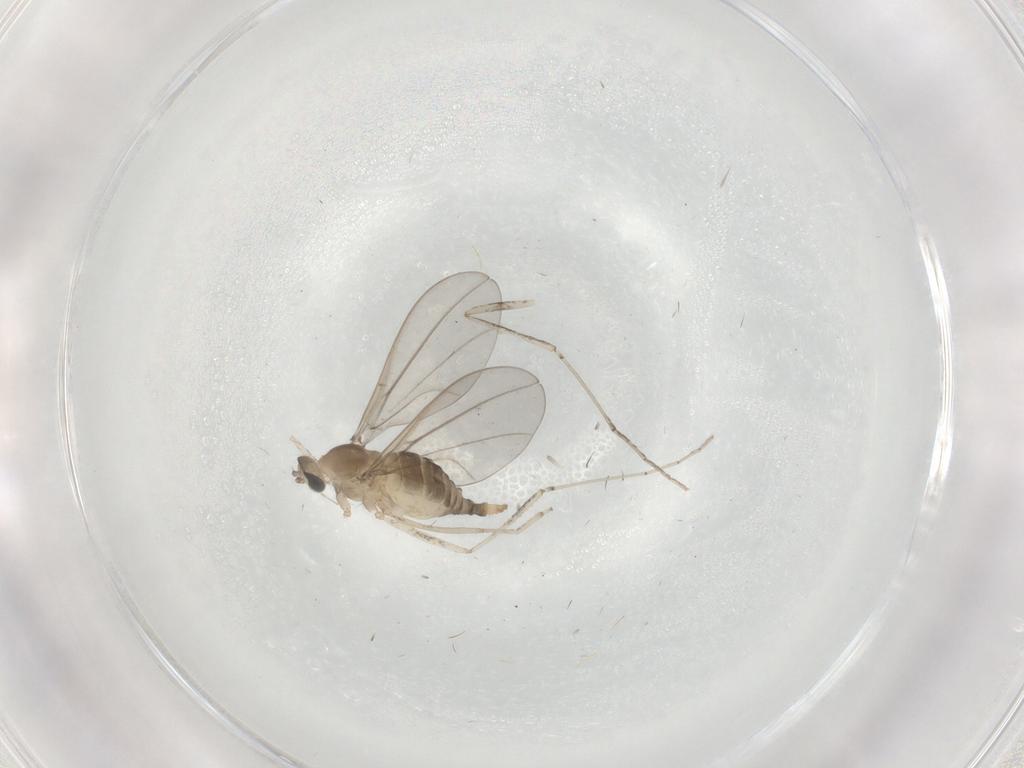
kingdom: Animalia
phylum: Arthropoda
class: Insecta
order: Diptera
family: Cecidomyiidae
